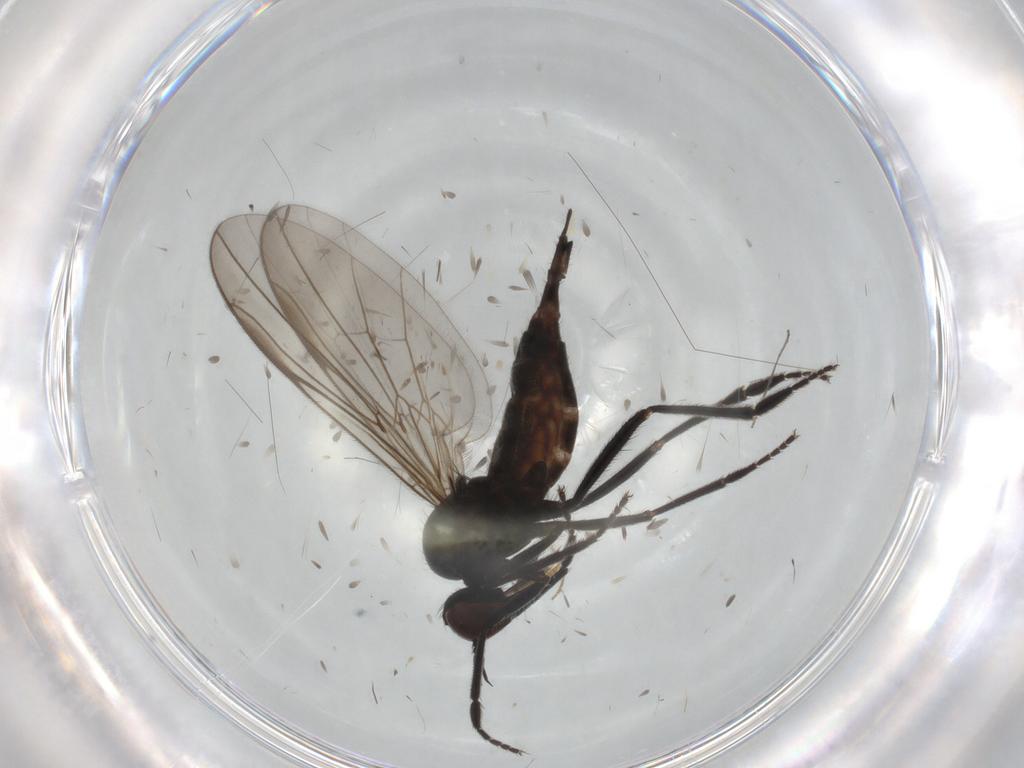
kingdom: Animalia
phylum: Arthropoda
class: Insecta
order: Diptera
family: Empididae
